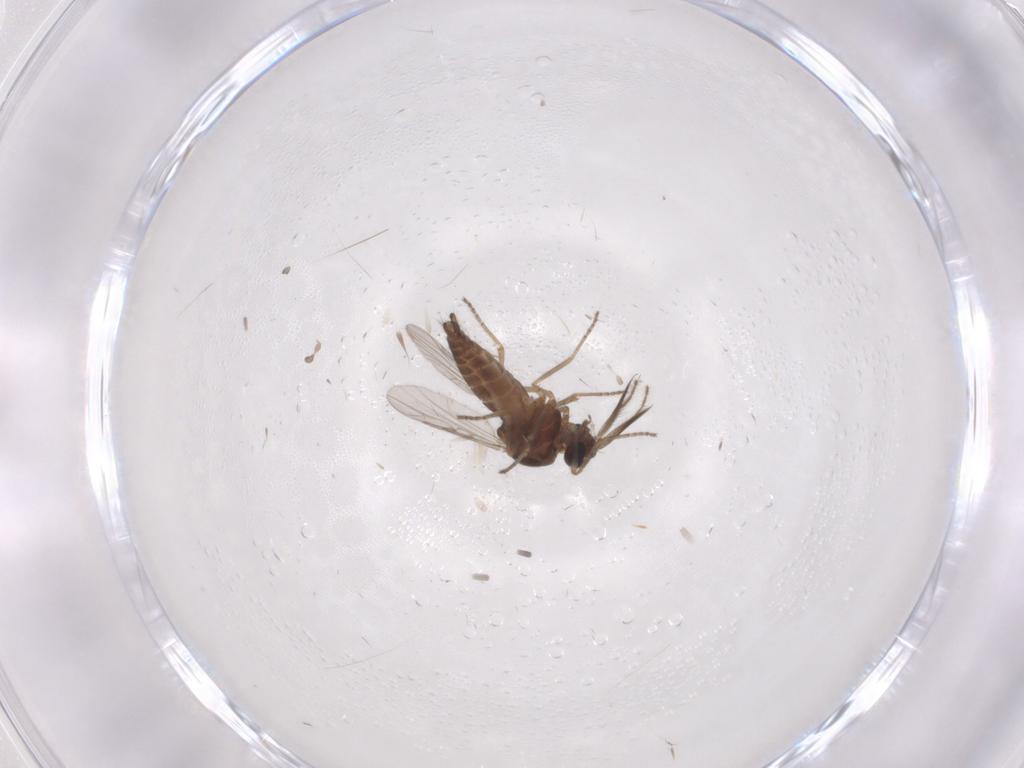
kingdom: Animalia
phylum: Arthropoda
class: Insecta
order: Diptera
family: Ceratopogonidae
